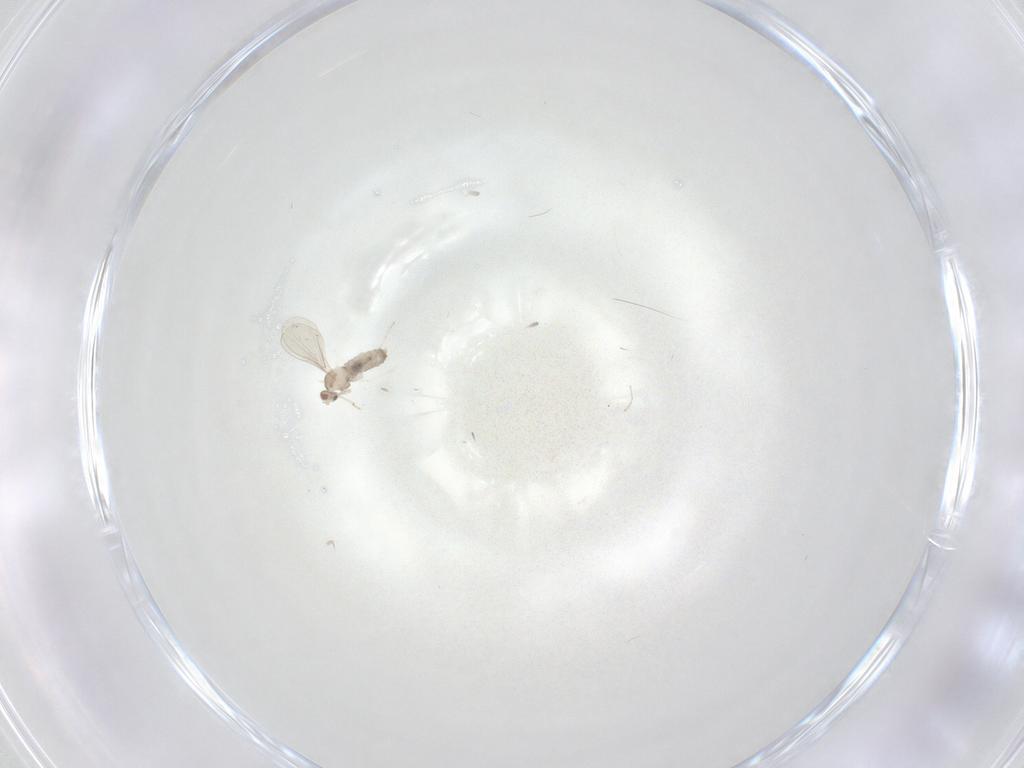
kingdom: Animalia
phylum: Arthropoda
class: Insecta
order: Diptera
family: Cecidomyiidae
